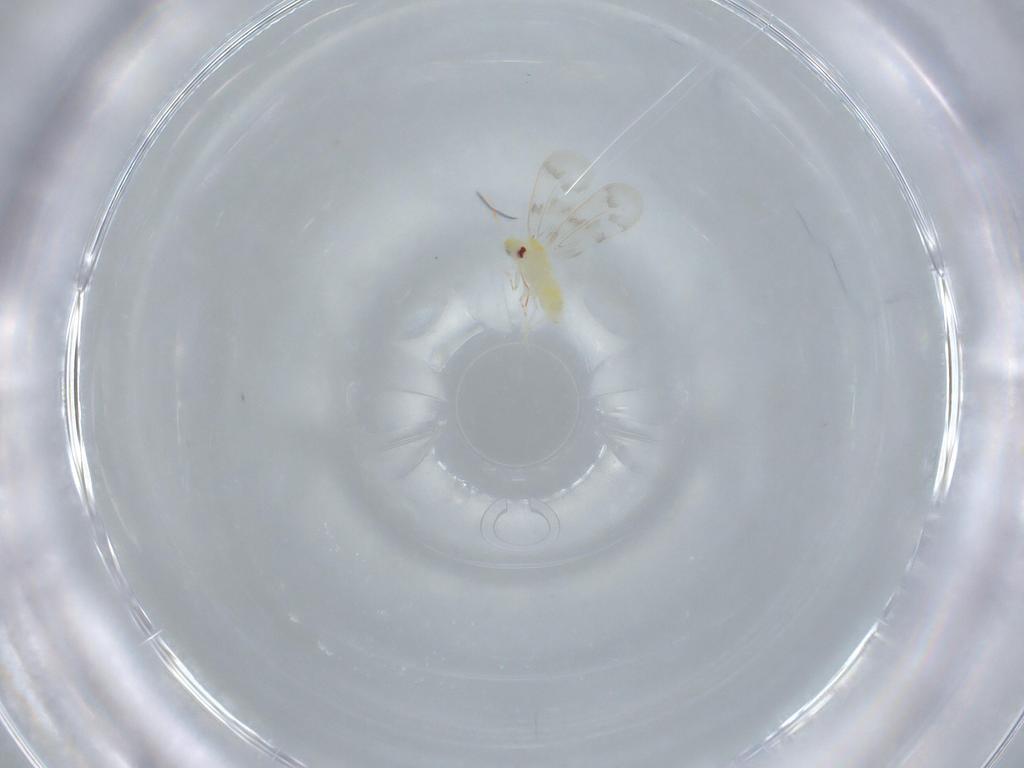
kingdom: Animalia
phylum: Arthropoda
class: Insecta
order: Hemiptera
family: Aleyrodidae
